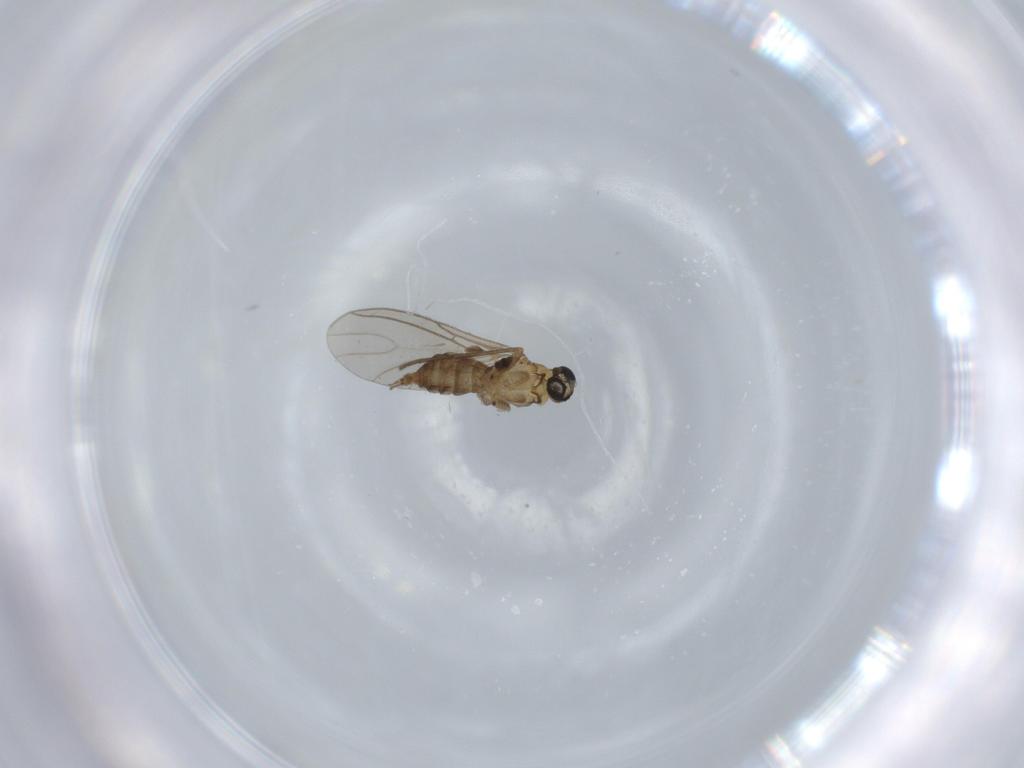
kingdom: Animalia
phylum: Arthropoda
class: Insecta
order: Diptera
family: Sciaridae
